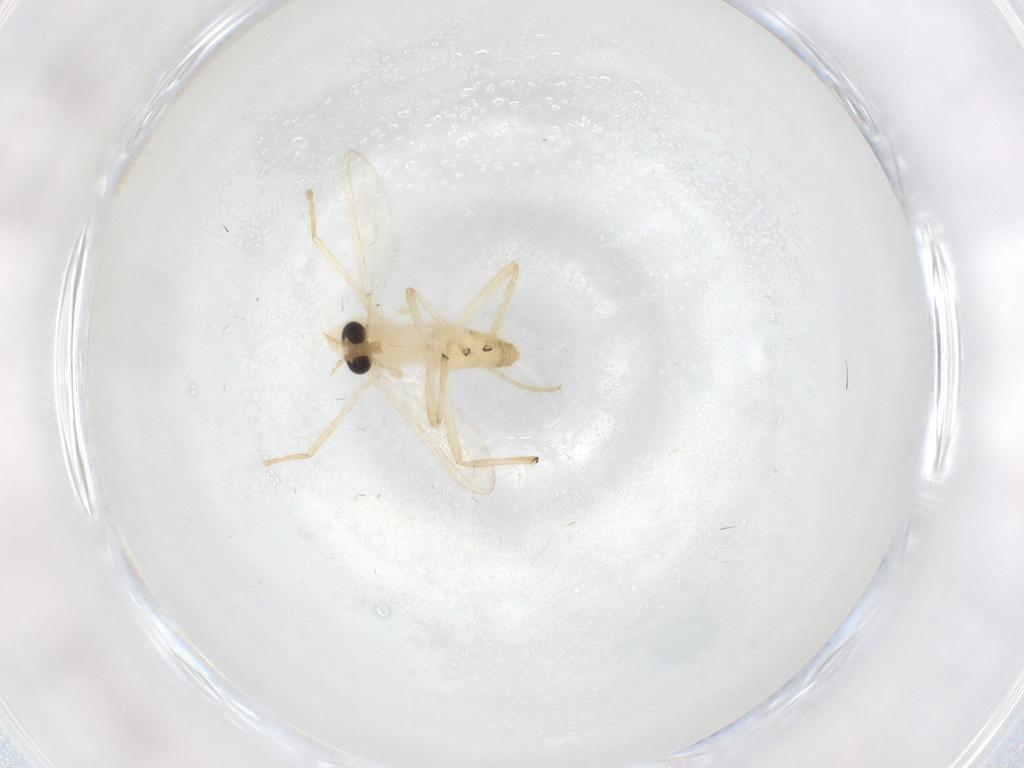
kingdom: Animalia
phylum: Arthropoda
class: Insecta
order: Diptera
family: Chironomidae
